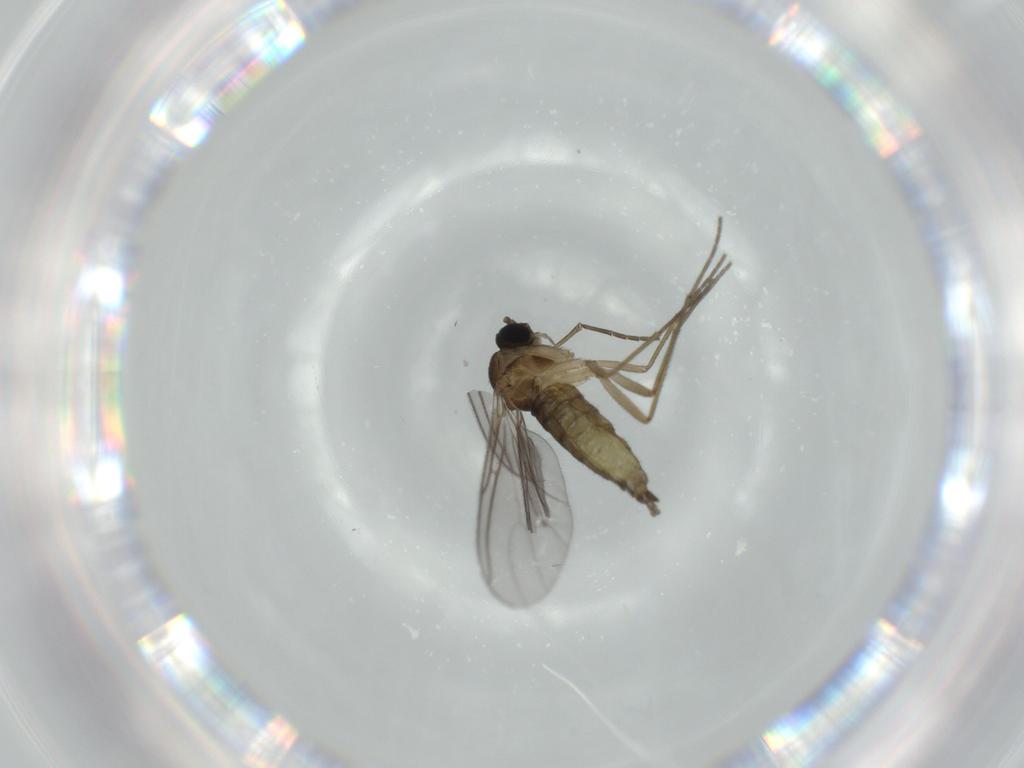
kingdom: Animalia
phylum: Arthropoda
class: Insecta
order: Diptera
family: Sciaridae
